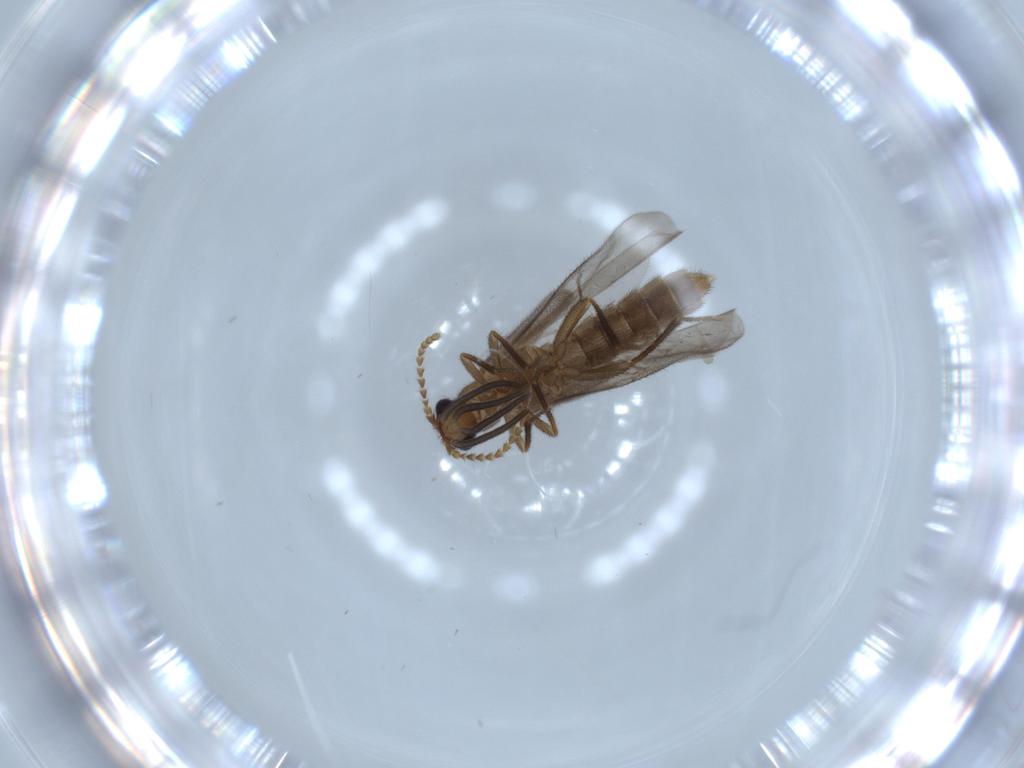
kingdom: Animalia
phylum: Arthropoda
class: Insecta
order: Coleoptera
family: Curculionidae
